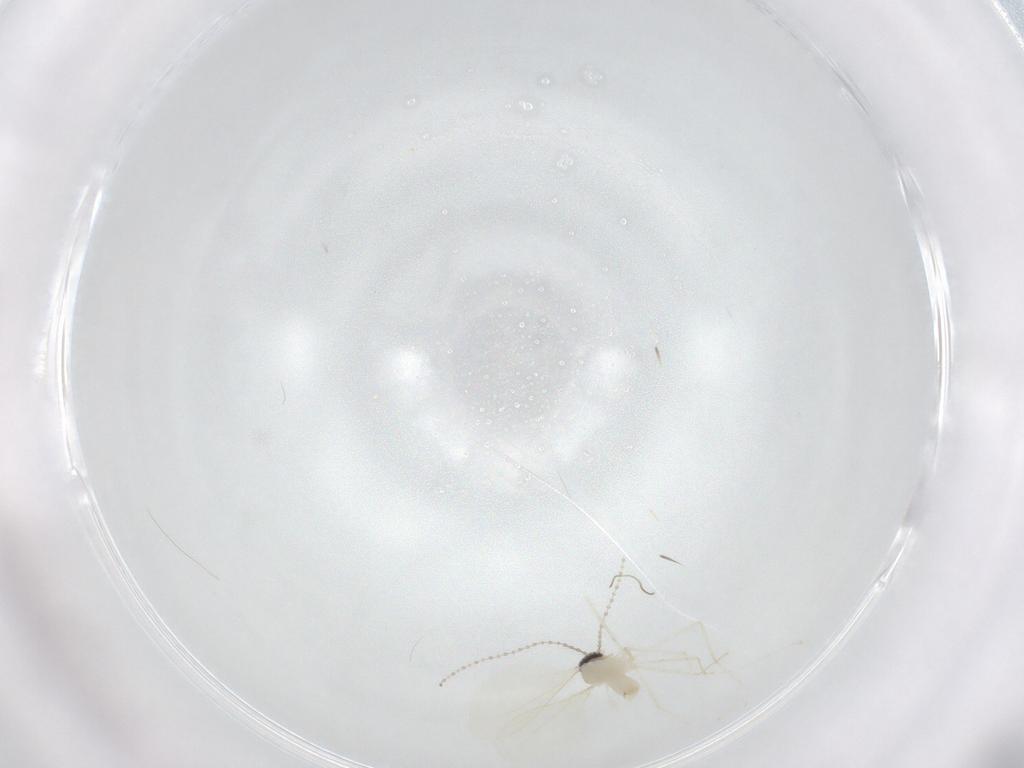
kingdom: Animalia
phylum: Arthropoda
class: Insecta
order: Diptera
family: Cecidomyiidae
